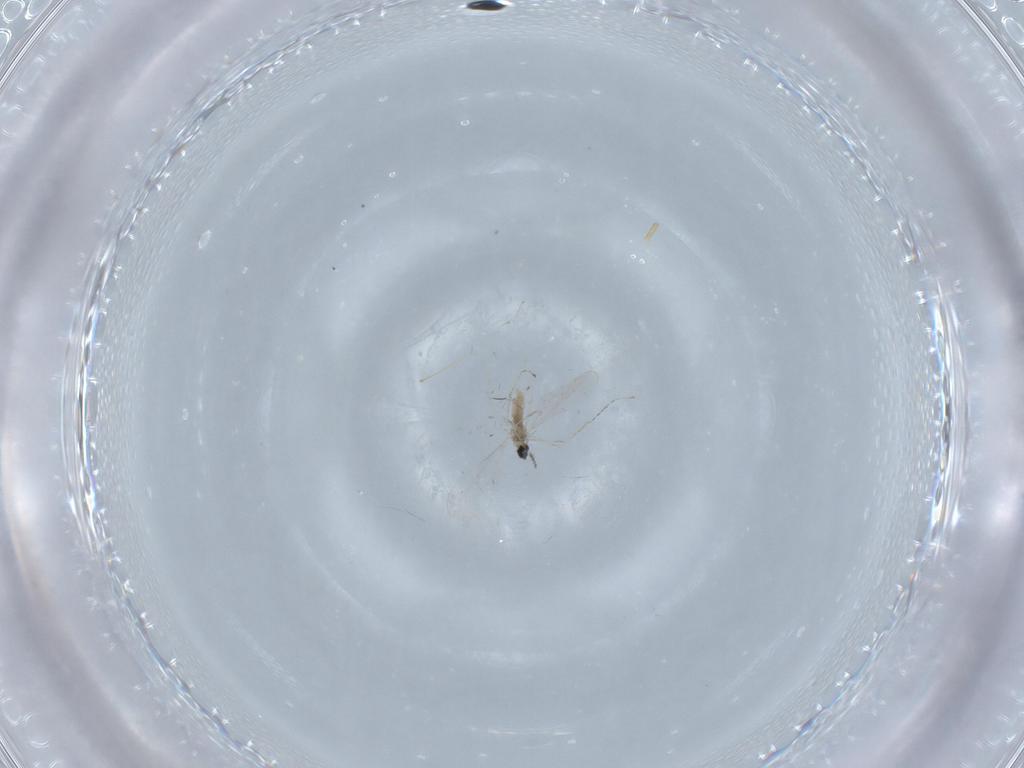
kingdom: Animalia
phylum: Arthropoda
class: Insecta
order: Diptera
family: Cecidomyiidae
